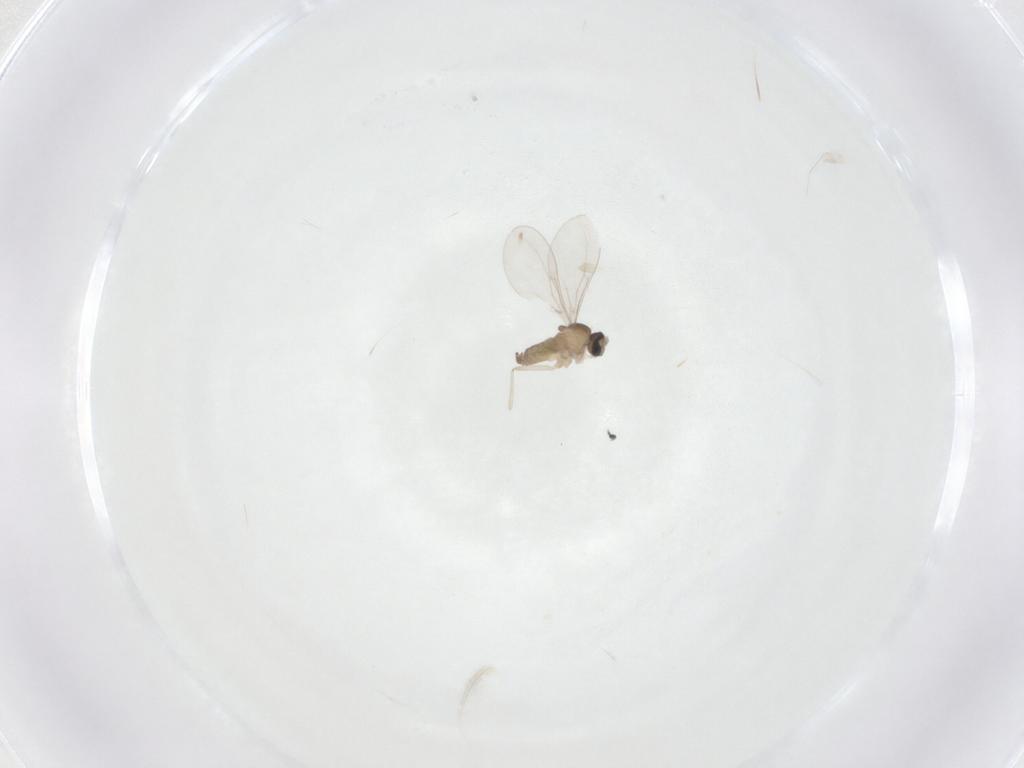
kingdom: Animalia
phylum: Arthropoda
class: Insecta
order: Diptera
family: Cecidomyiidae
